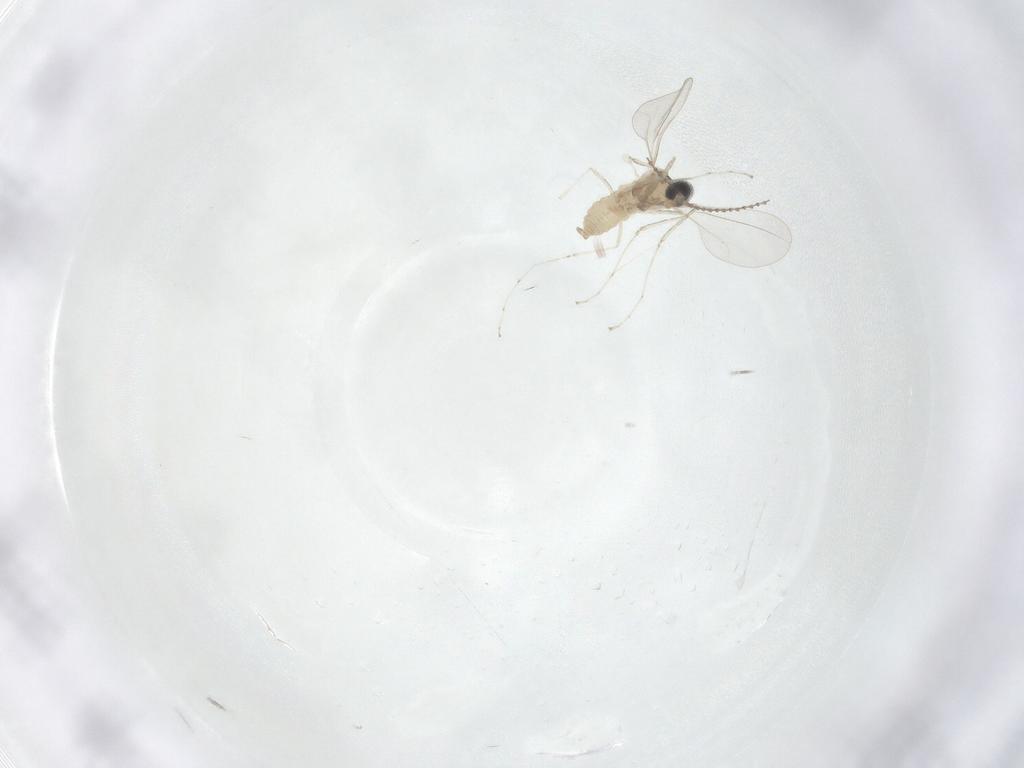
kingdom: Animalia
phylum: Arthropoda
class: Insecta
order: Diptera
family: Cecidomyiidae
